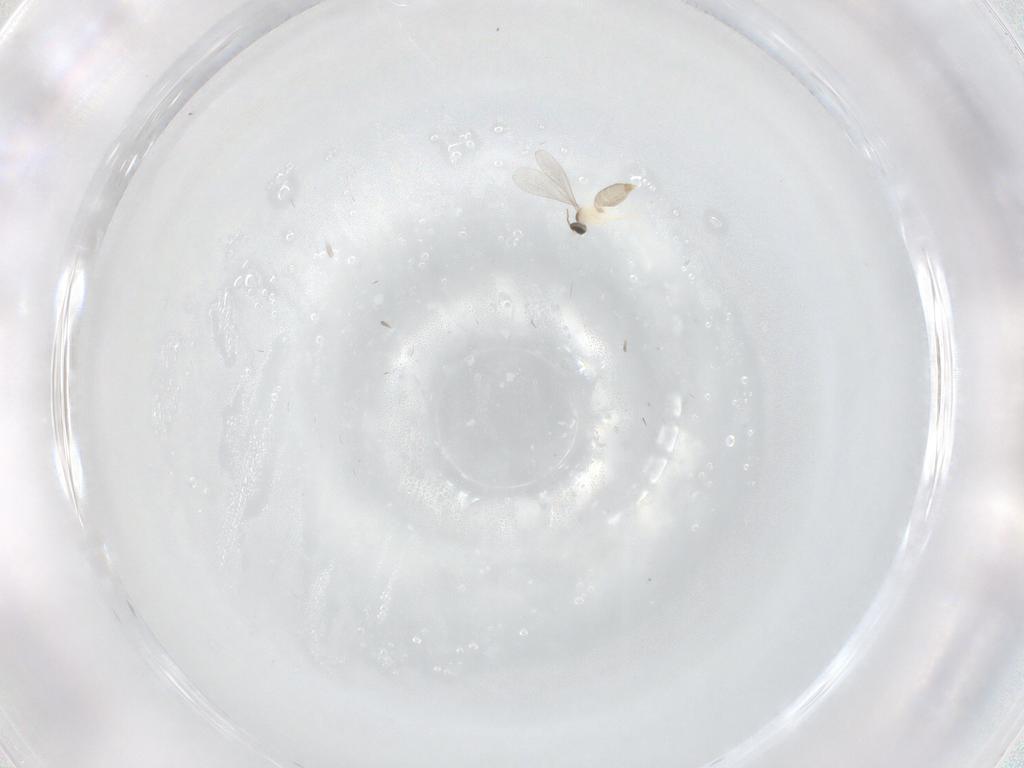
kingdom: Animalia
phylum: Arthropoda
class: Insecta
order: Diptera
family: Cecidomyiidae
